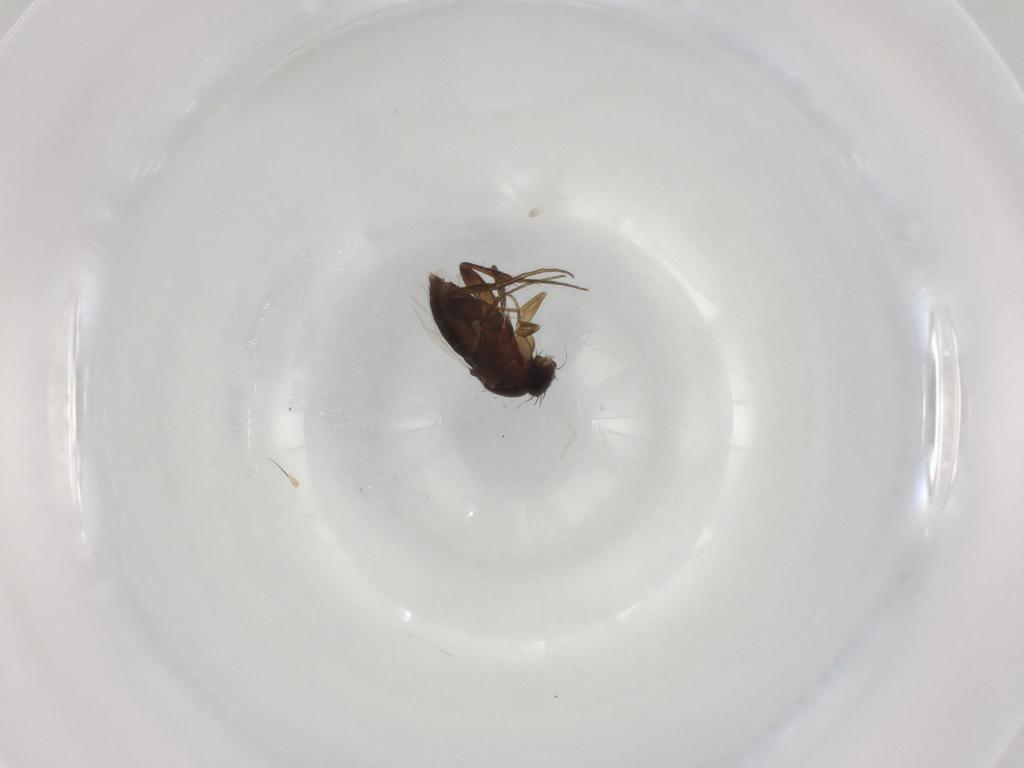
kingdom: Animalia
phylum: Arthropoda
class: Insecta
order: Diptera
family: Phoridae
